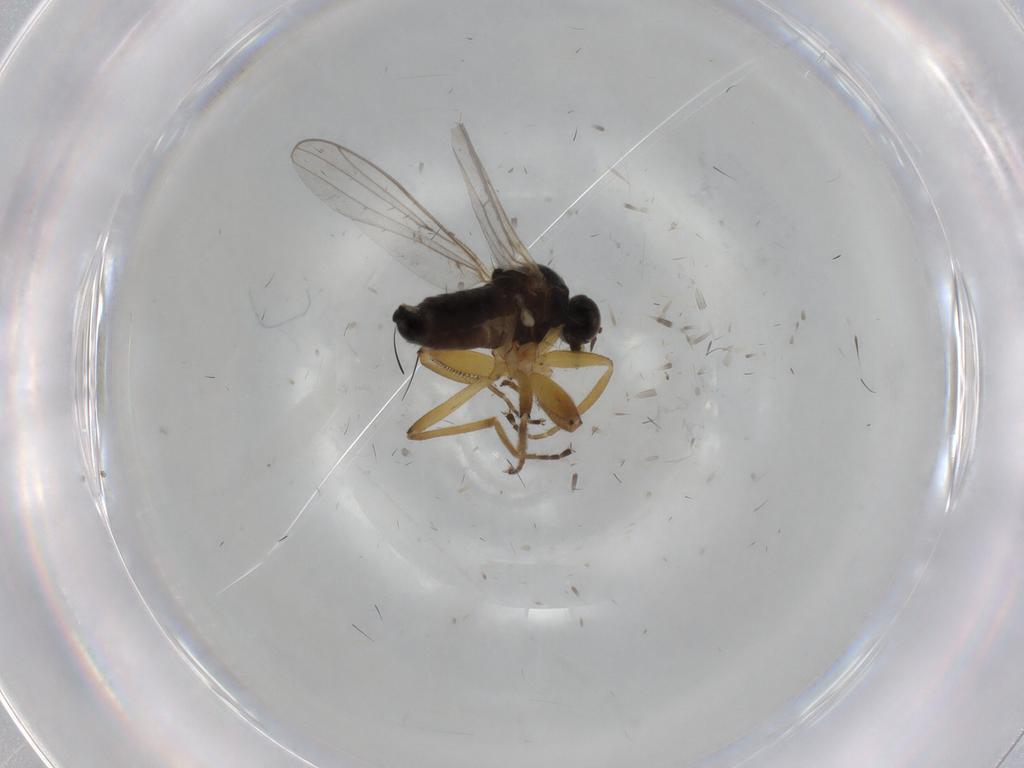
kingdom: Animalia
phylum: Arthropoda
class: Insecta
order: Diptera
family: Hybotidae
